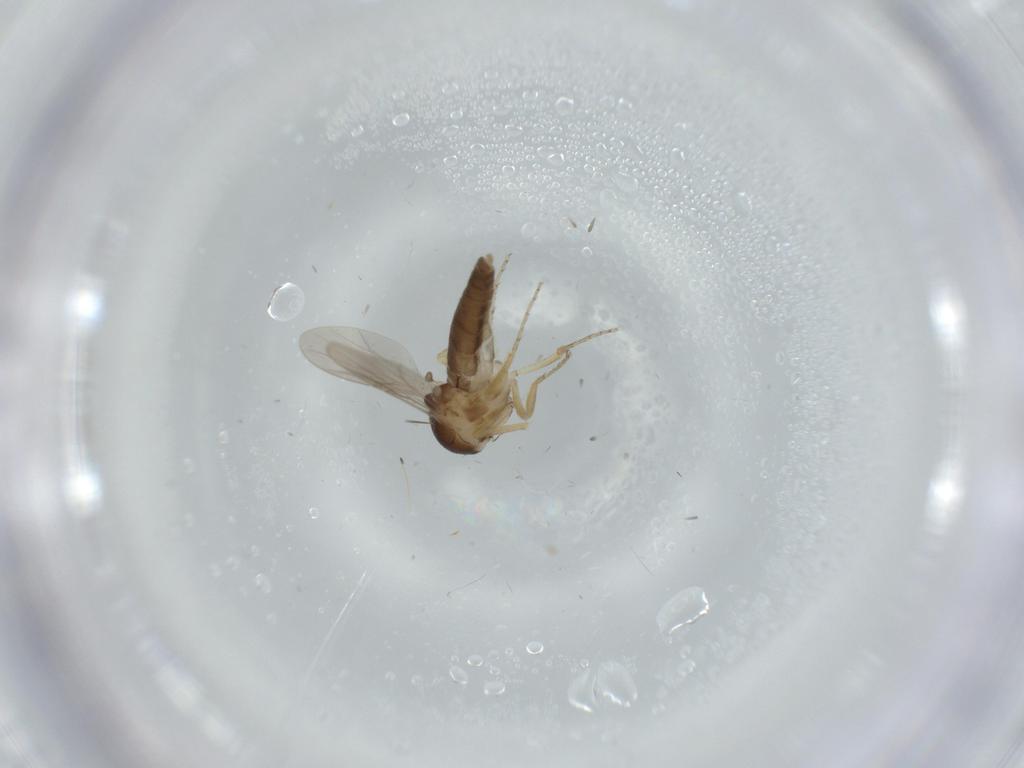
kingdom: Animalia
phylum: Arthropoda
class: Insecta
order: Diptera
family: Ceratopogonidae
